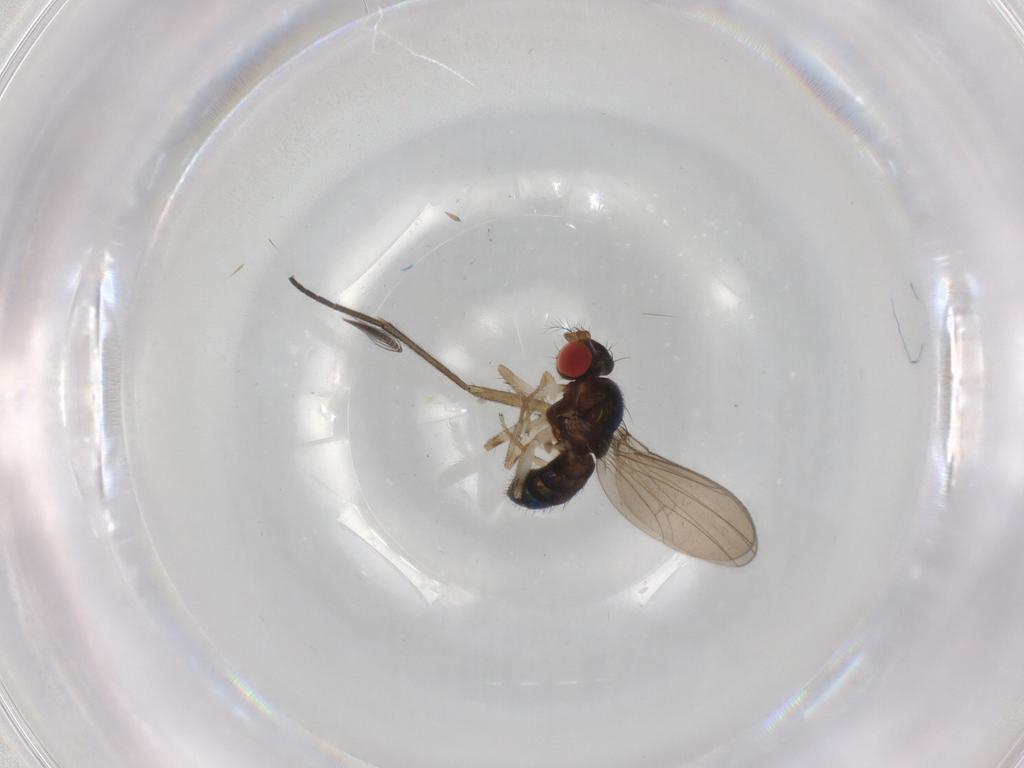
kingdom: Animalia
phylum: Arthropoda
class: Insecta
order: Diptera
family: Drosophilidae
